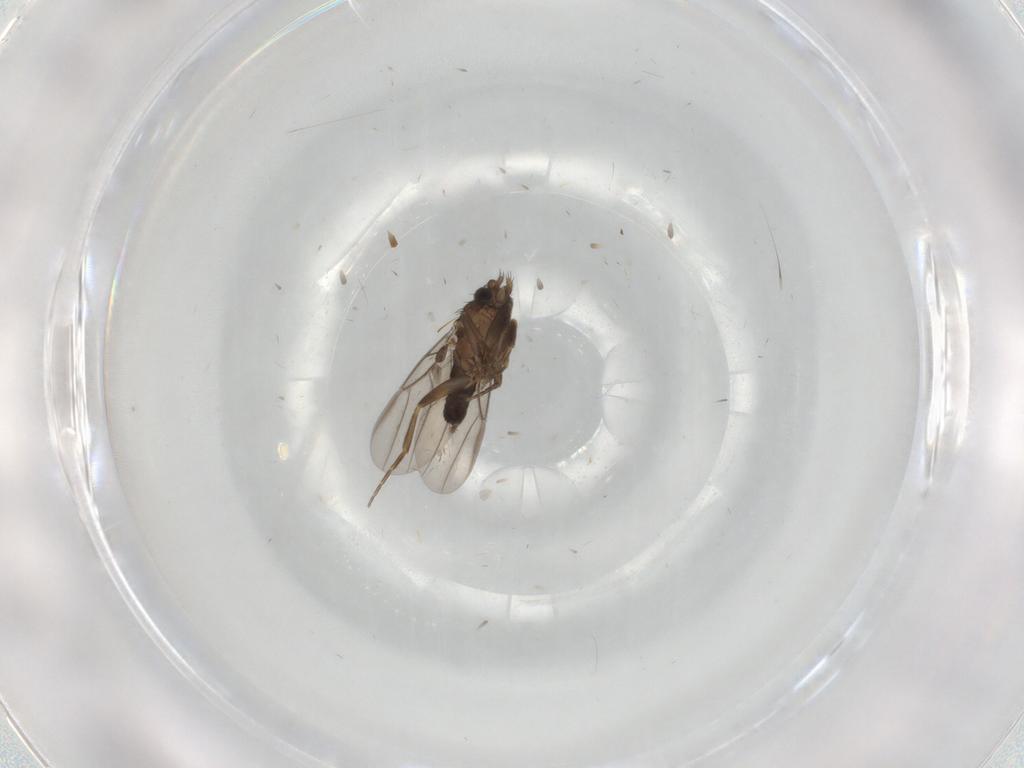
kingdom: Animalia
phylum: Arthropoda
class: Insecta
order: Diptera
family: Cecidomyiidae
